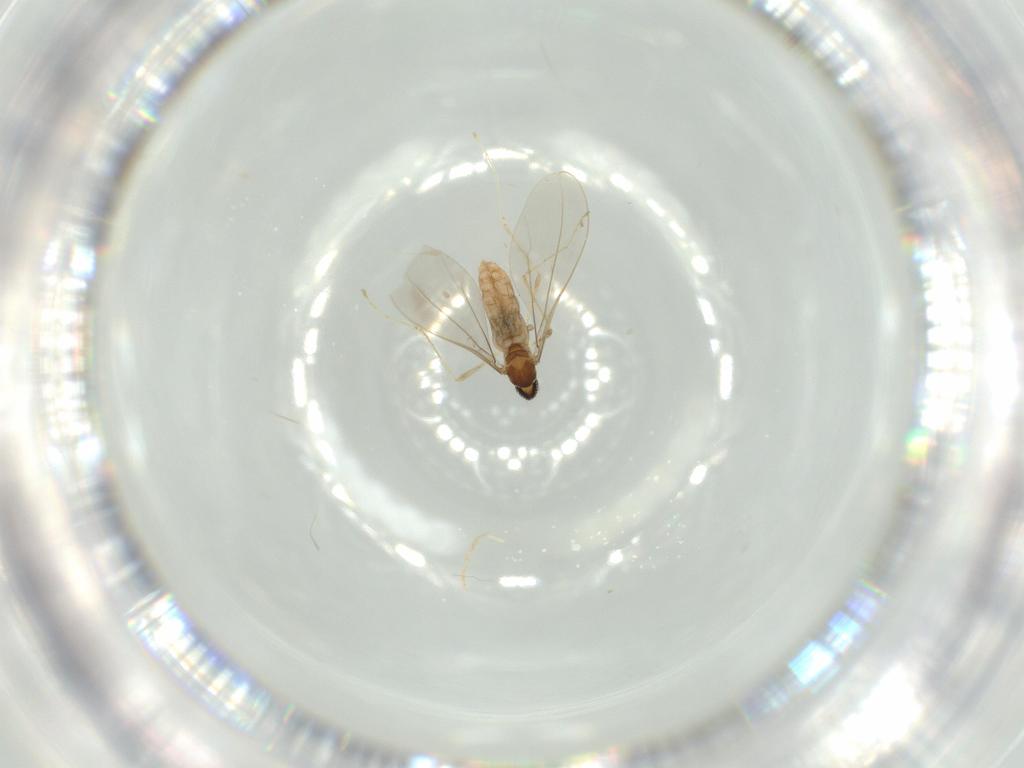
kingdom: Animalia
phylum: Arthropoda
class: Insecta
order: Diptera
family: Cecidomyiidae
